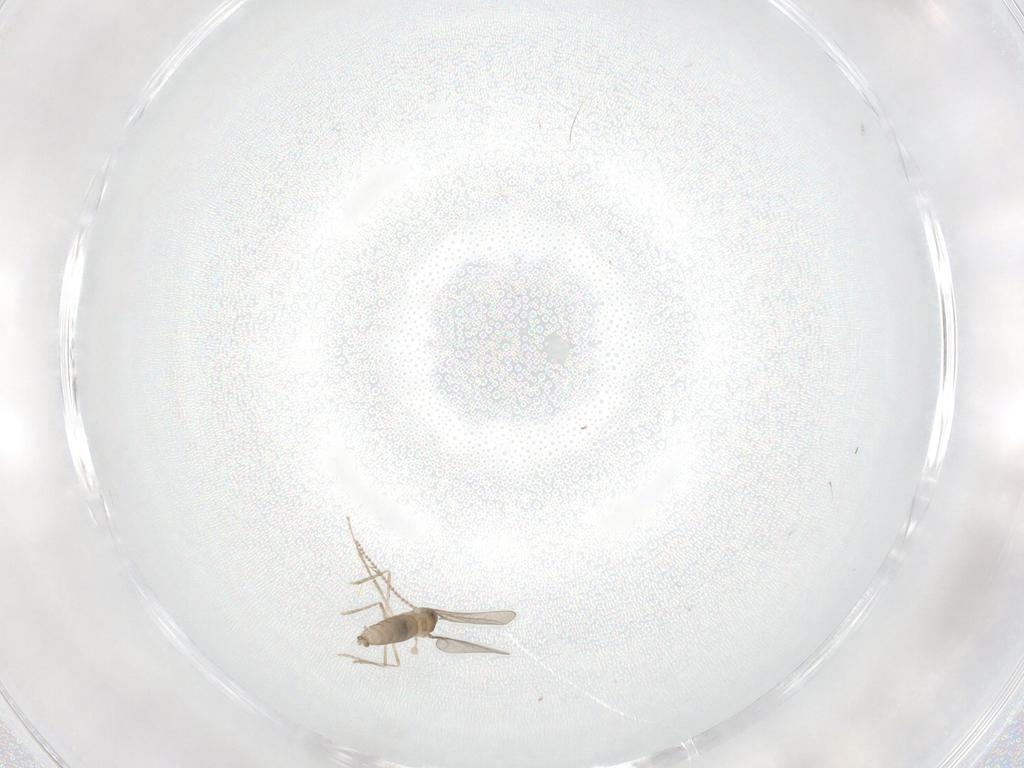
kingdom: Animalia
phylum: Arthropoda
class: Insecta
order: Diptera
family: Cecidomyiidae
